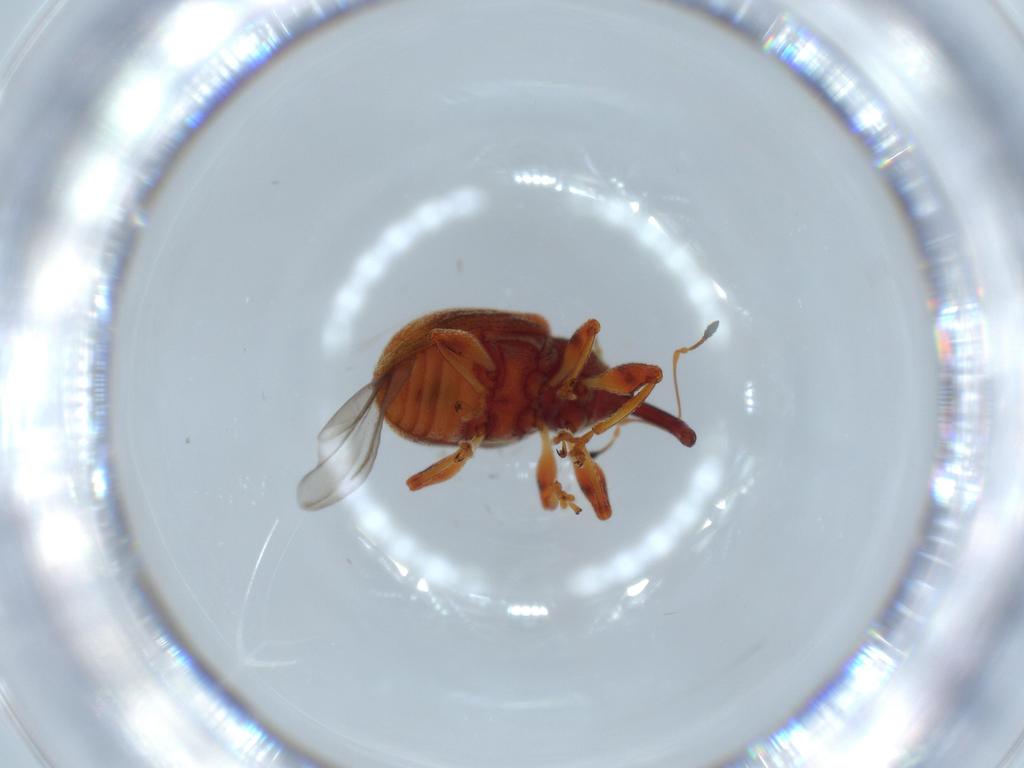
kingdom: Animalia
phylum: Arthropoda
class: Insecta
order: Coleoptera
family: Chrysomelidae
